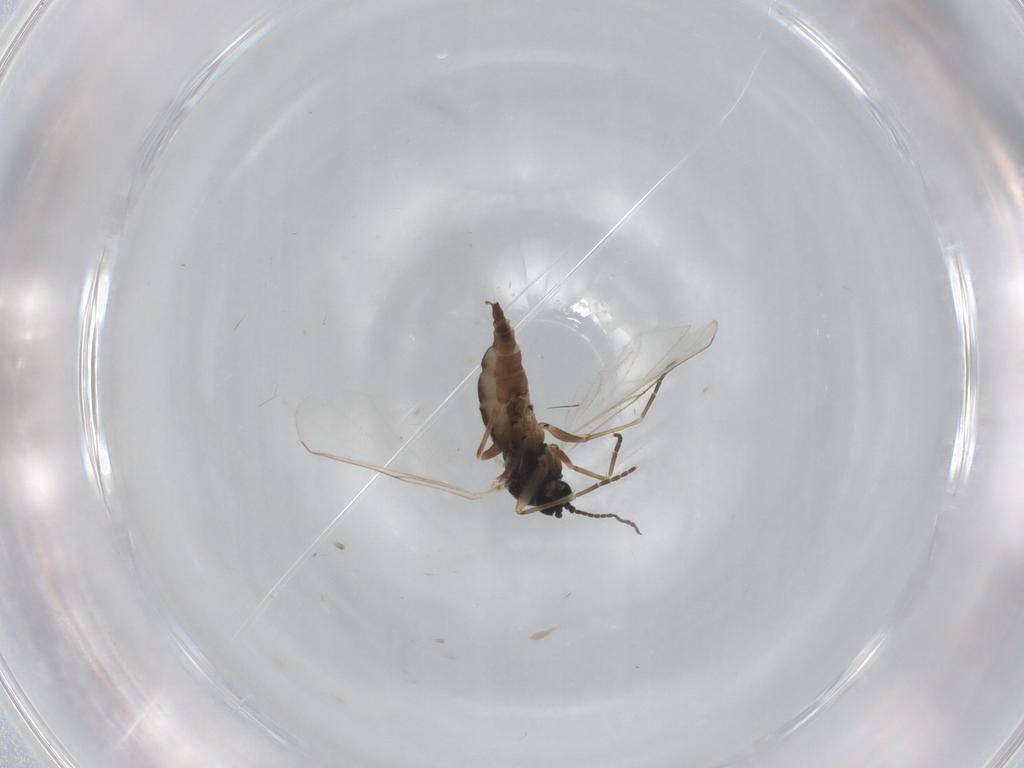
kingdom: Animalia
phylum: Arthropoda
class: Insecta
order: Diptera
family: Sciaridae
